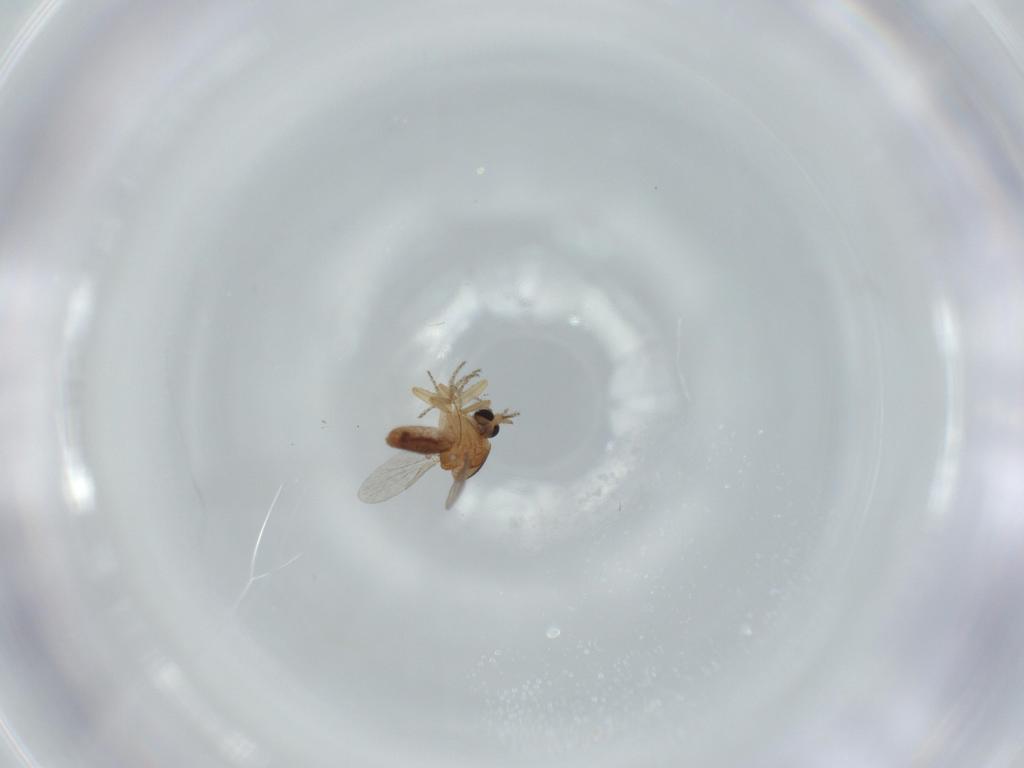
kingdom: Animalia
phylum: Arthropoda
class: Insecta
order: Diptera
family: Ceratopogonidae
